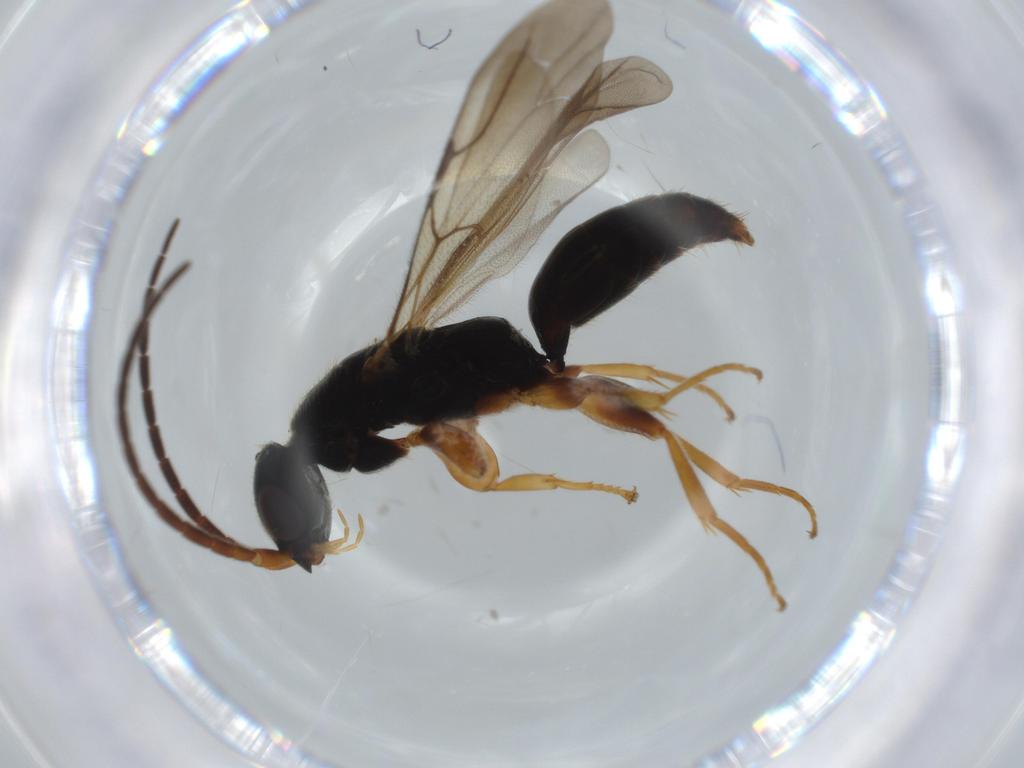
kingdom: Animalia
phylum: Arthropoda
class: Insecta
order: Hymenoptera
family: Bethylidae
